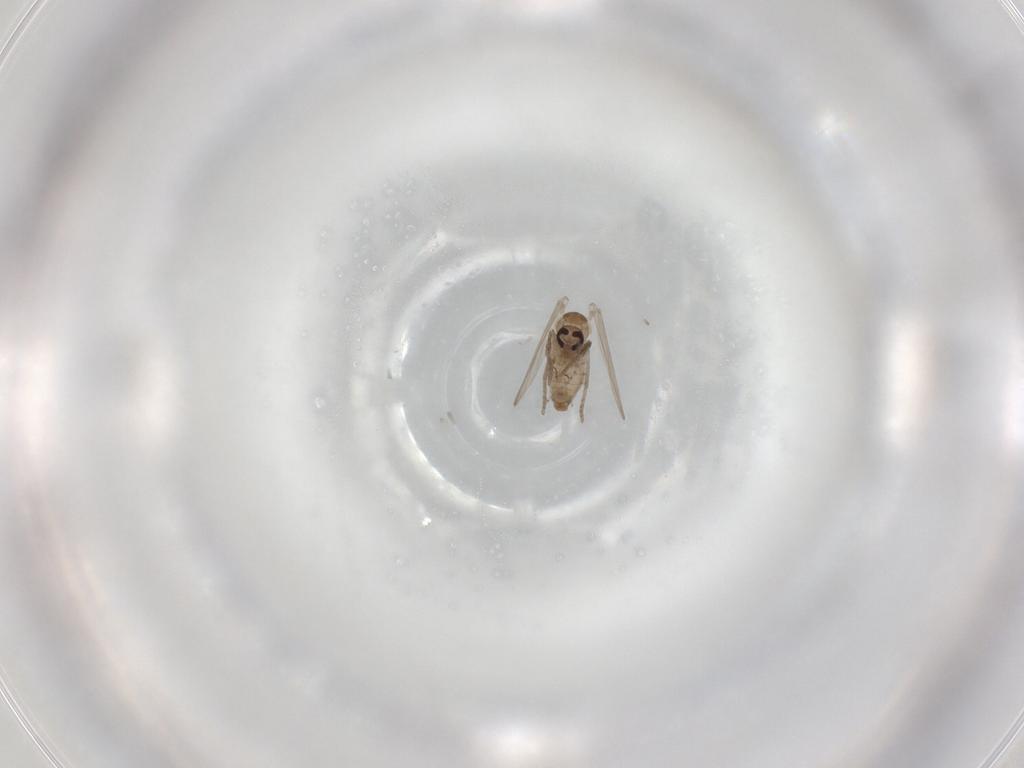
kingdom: Animalia
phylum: Arthropoda
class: Insecta
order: Diptera
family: Psychodidae
